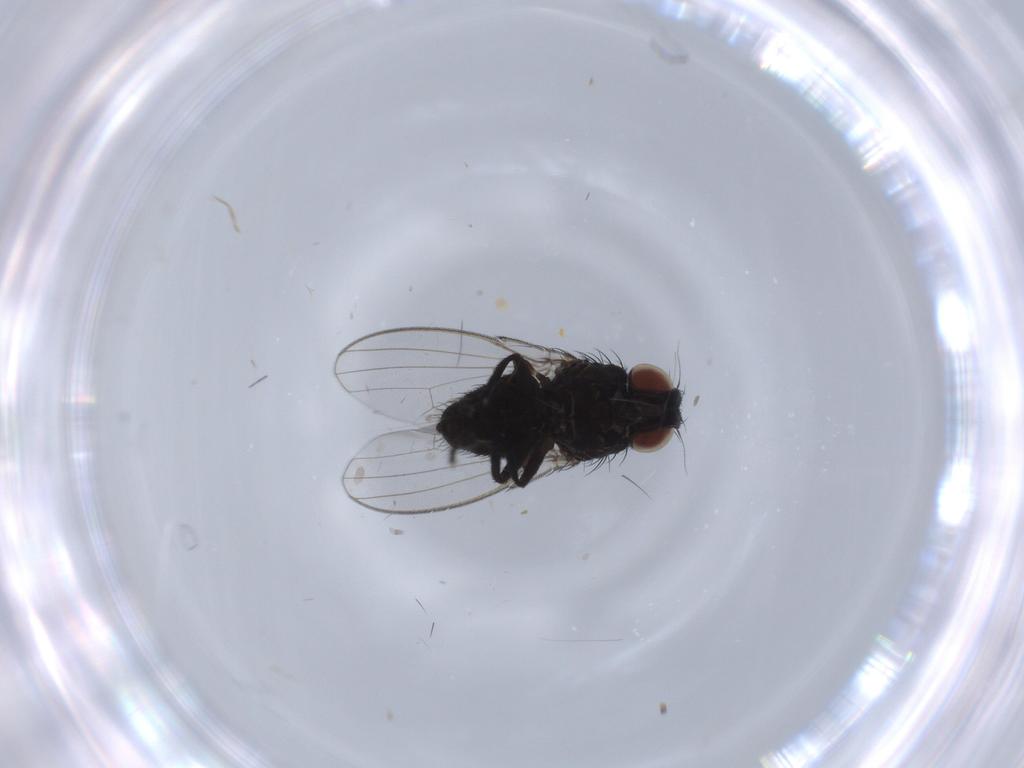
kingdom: Animalia
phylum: Arthropoda
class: Insecta
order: Diptera
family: Milichiidae
